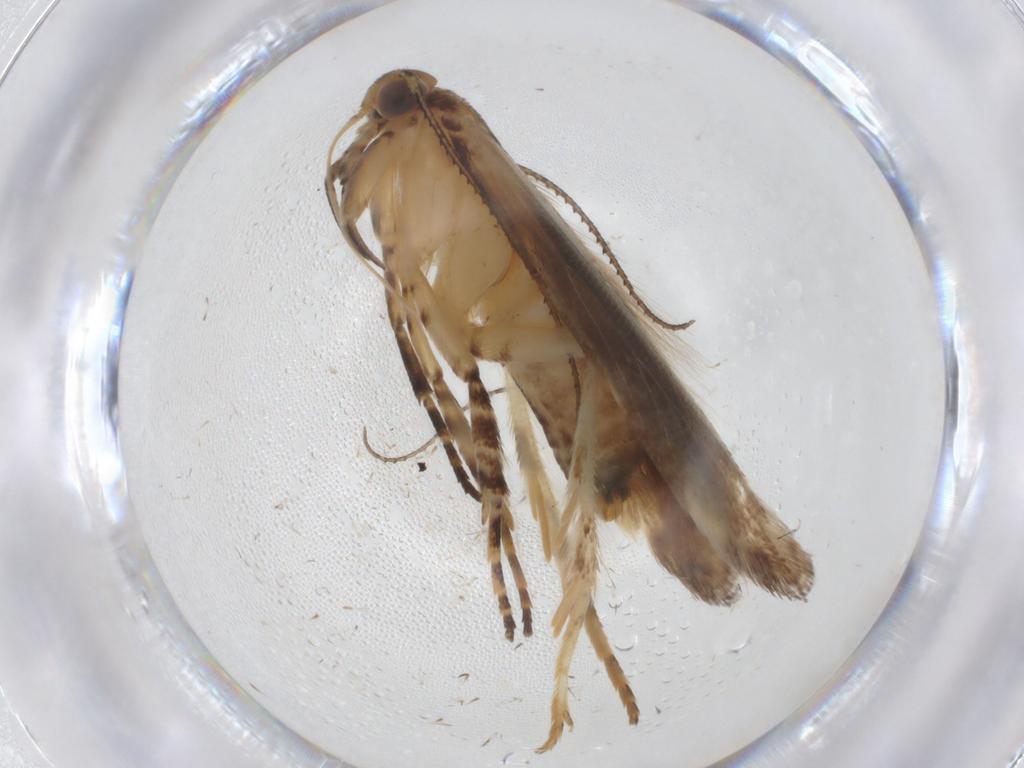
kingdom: Animalia
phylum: Arthropoda
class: Insecta
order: Lepidoptera
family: Gelechiidae
